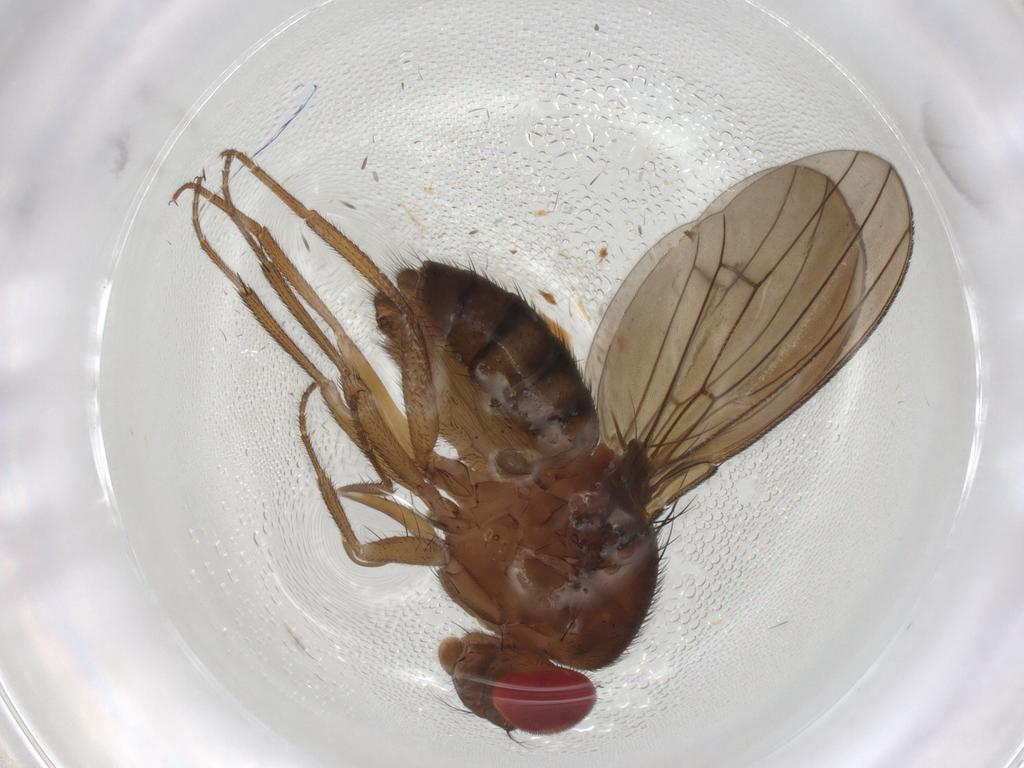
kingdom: Animalia
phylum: Arthropoda
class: Insecta
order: Diptera
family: Drosophilidae
